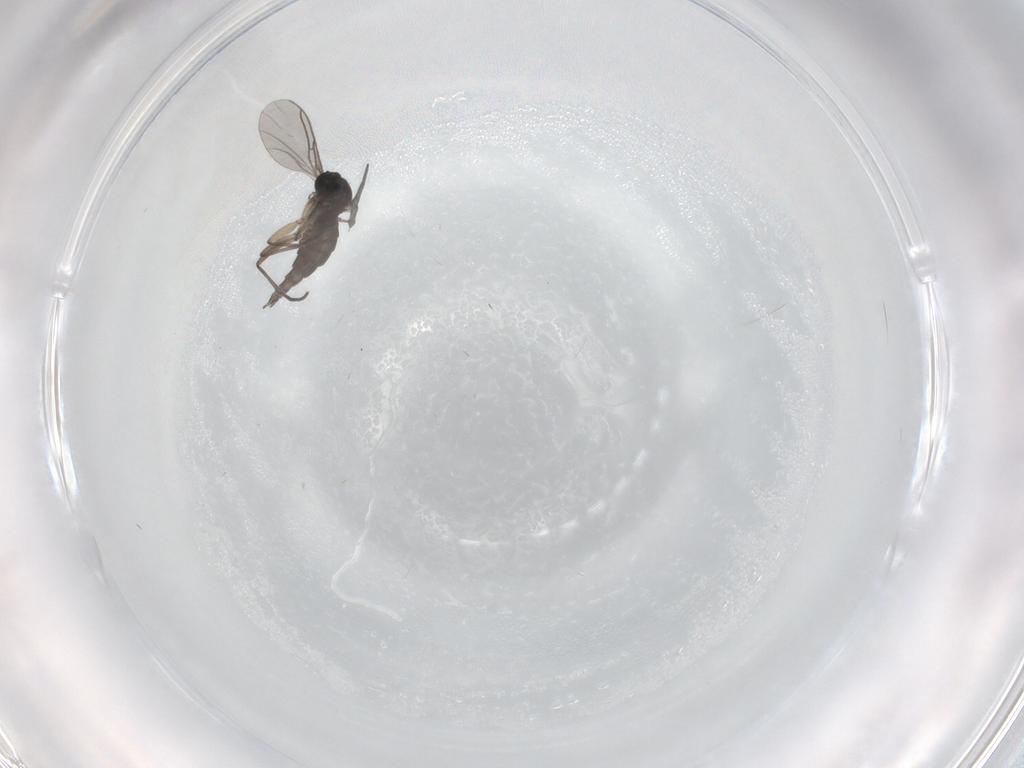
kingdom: Animalia
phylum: Arthropoda
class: Insecta
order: Diptera
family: Sciaridae
